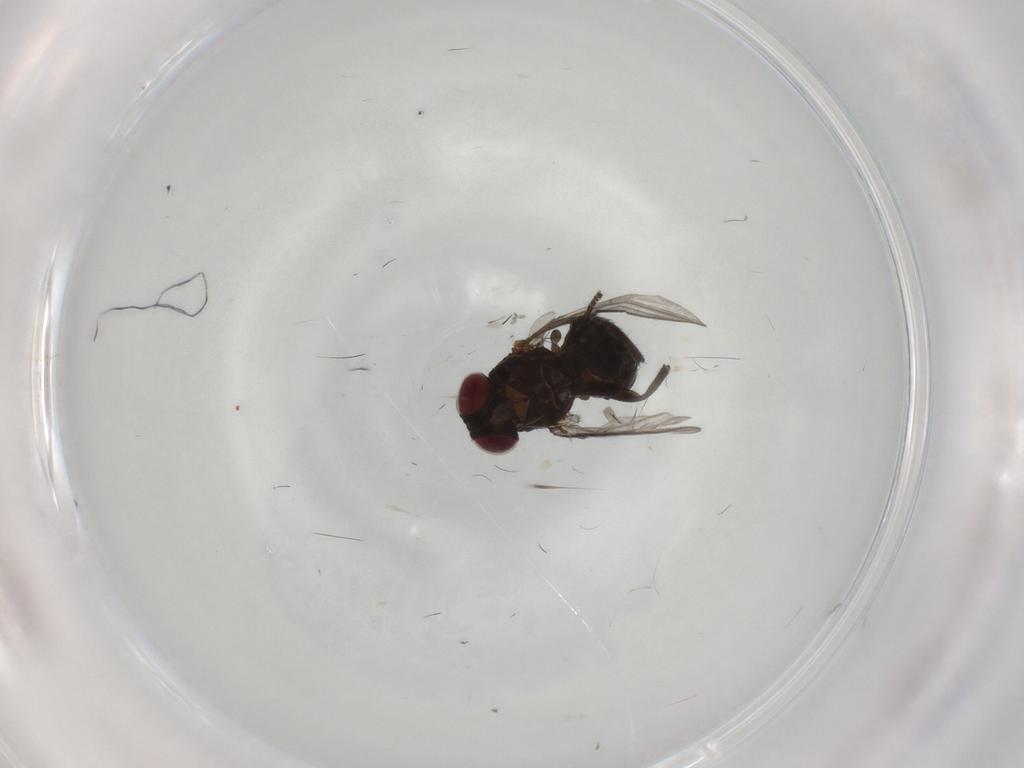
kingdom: Animalia
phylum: Arthropoda
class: Insecta
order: Diptera
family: Agromyzidae
